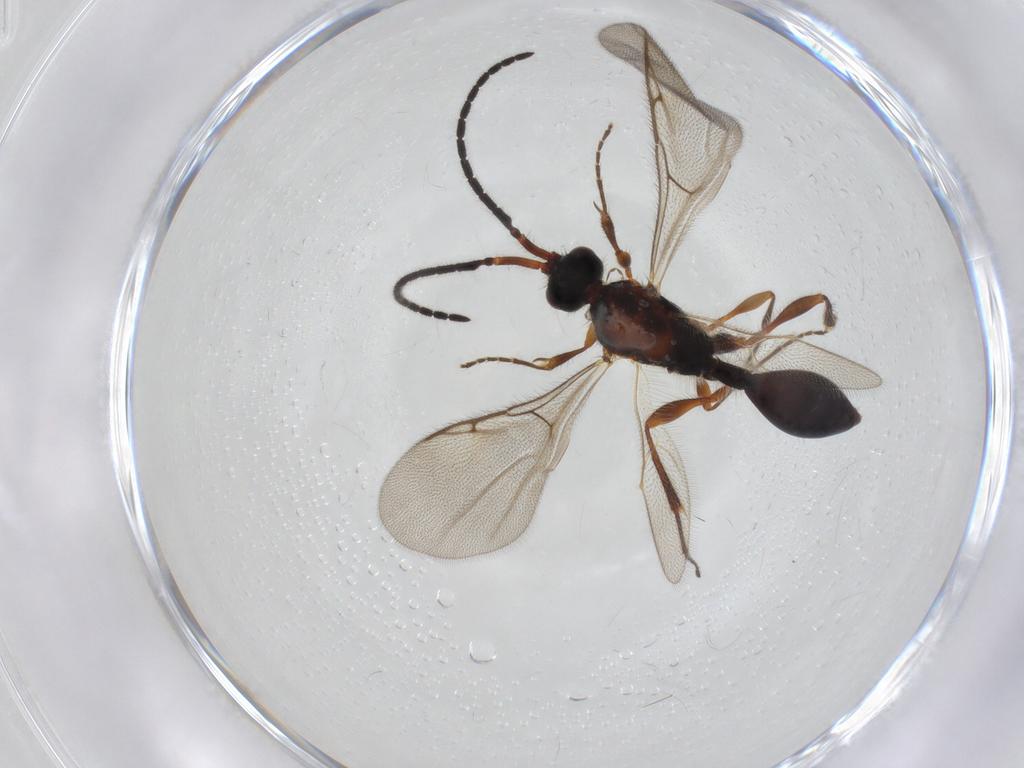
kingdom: Animalia
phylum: Arthropoda
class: Insecta
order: Hymenoptera
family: Diapriidae
